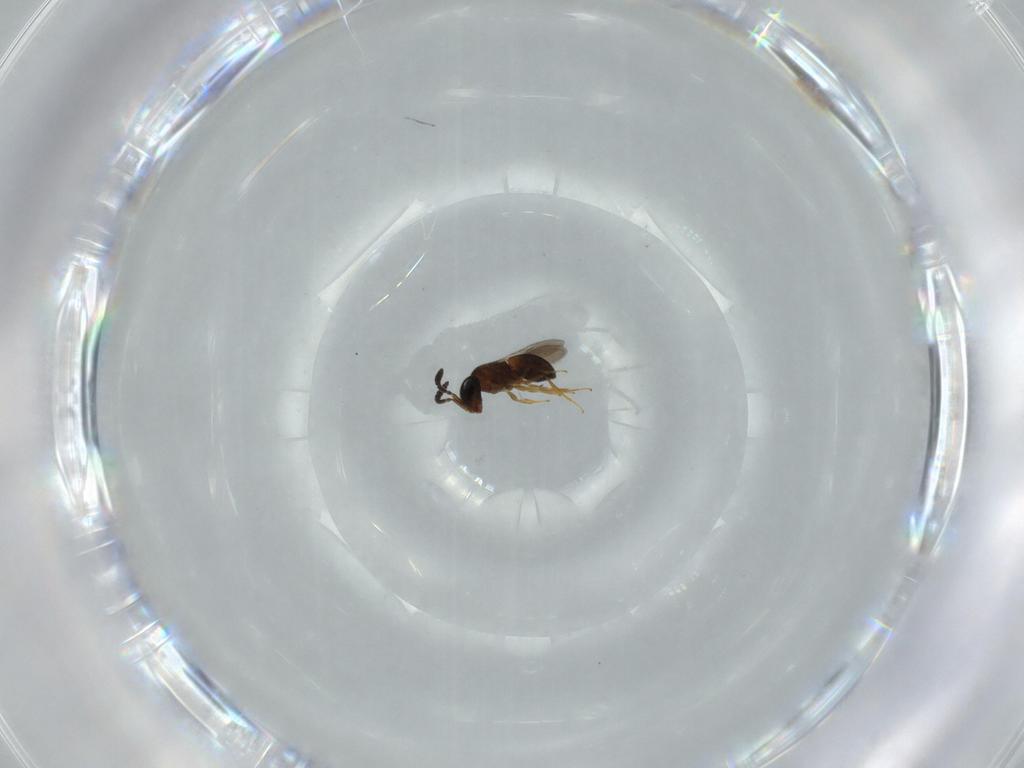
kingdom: Animalia
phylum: Arthropoda
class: Insecta
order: Hymenoptera
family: Scelionidae
